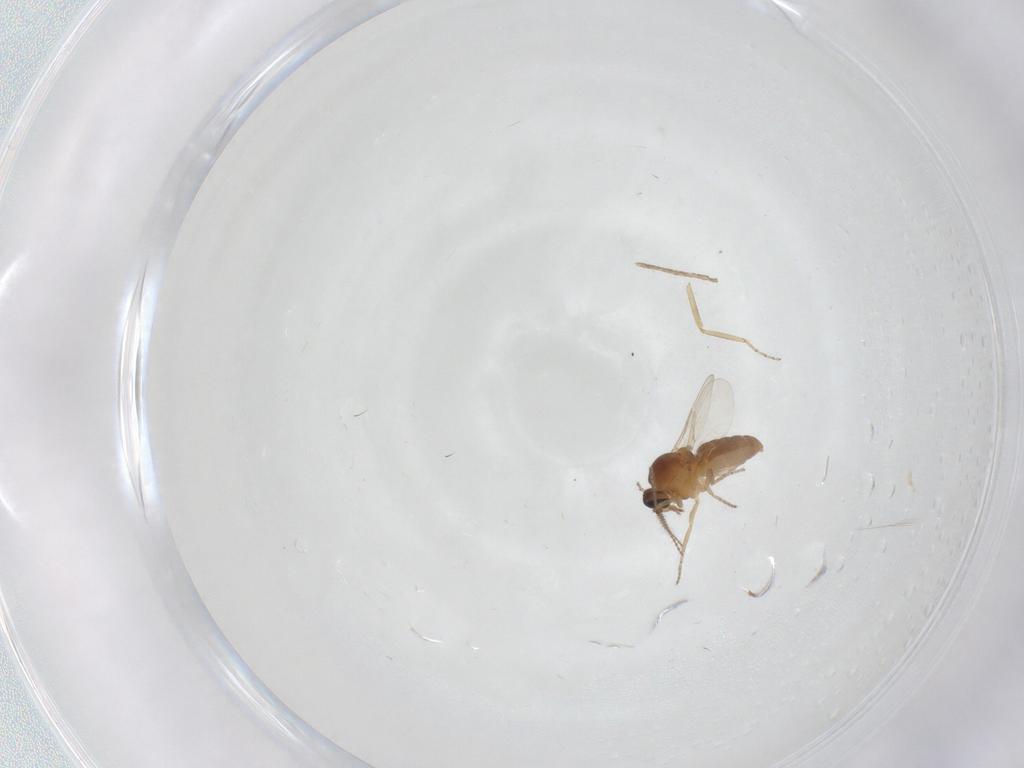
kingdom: Animalia
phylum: Arthropoda
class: Insecta
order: Diptera
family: Ceratopogonidae
